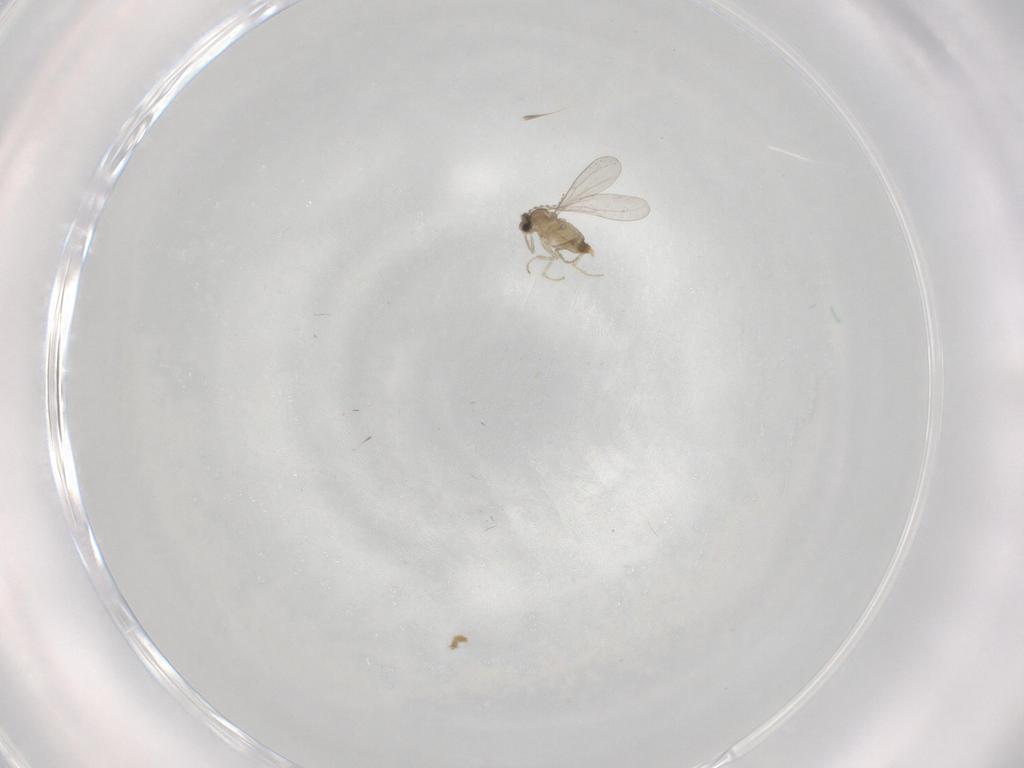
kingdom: Animalia
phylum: Arthropoda
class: Insecta
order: Diptera
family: Cecidomyiidae
